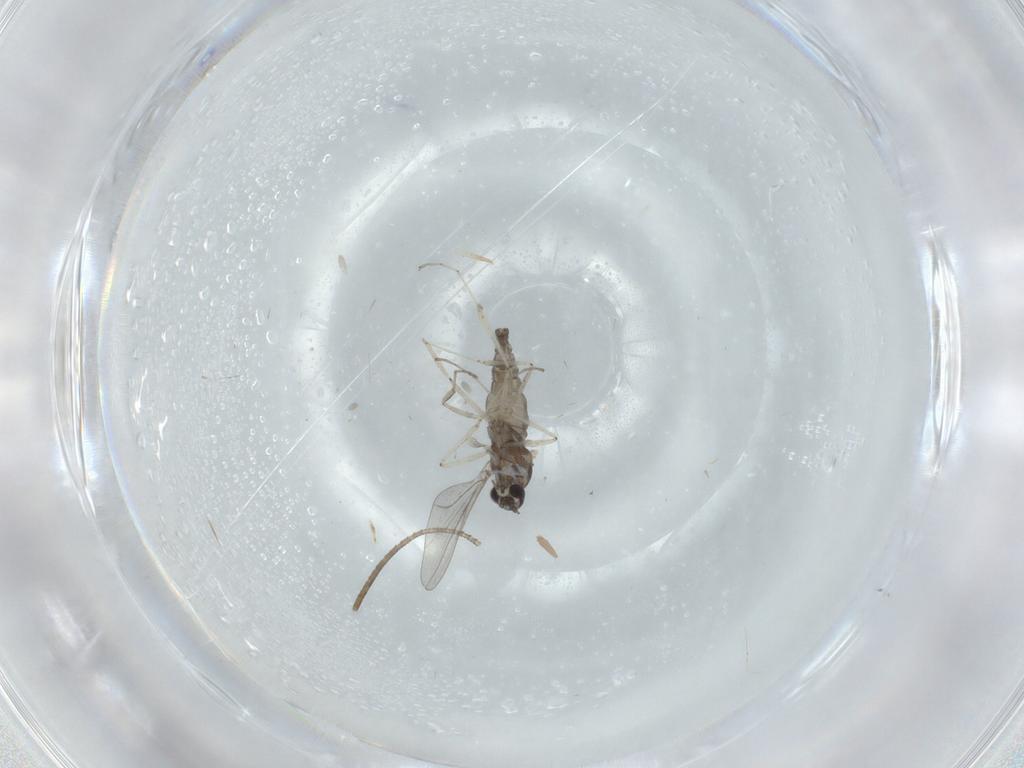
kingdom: Animalia
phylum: Arthropoda
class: Insecta
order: Diptera
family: Cecidomyiidae
